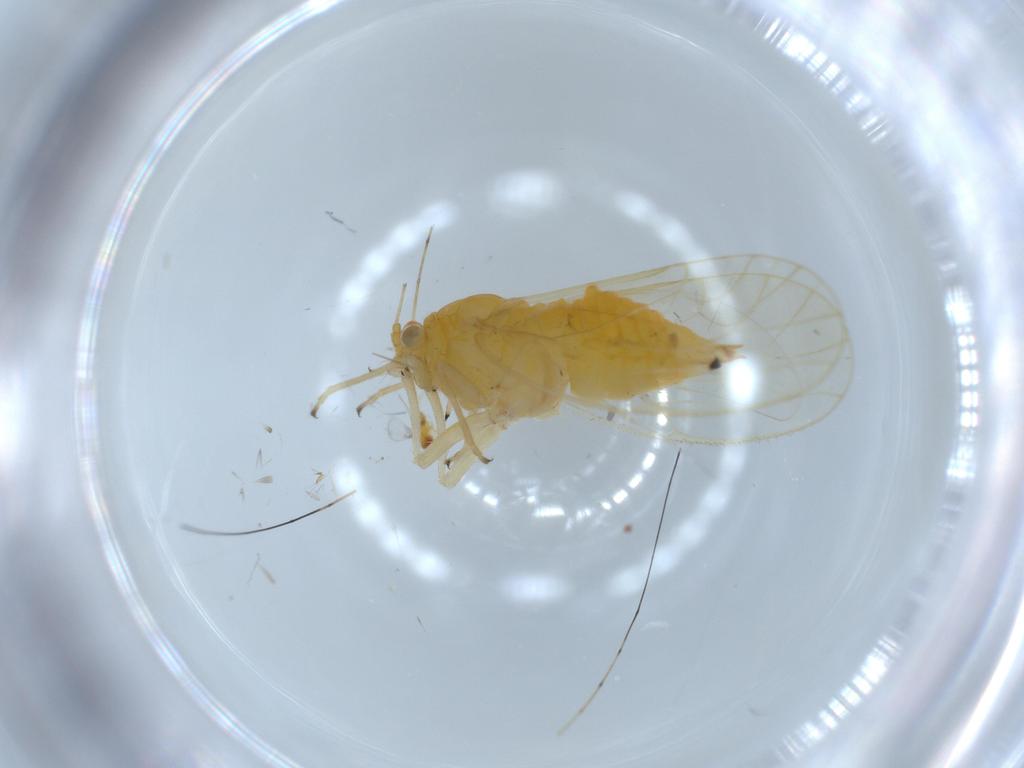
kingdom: Animalia
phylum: Arthropoda
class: Insecta
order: Hemiptera
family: Psyllidae
